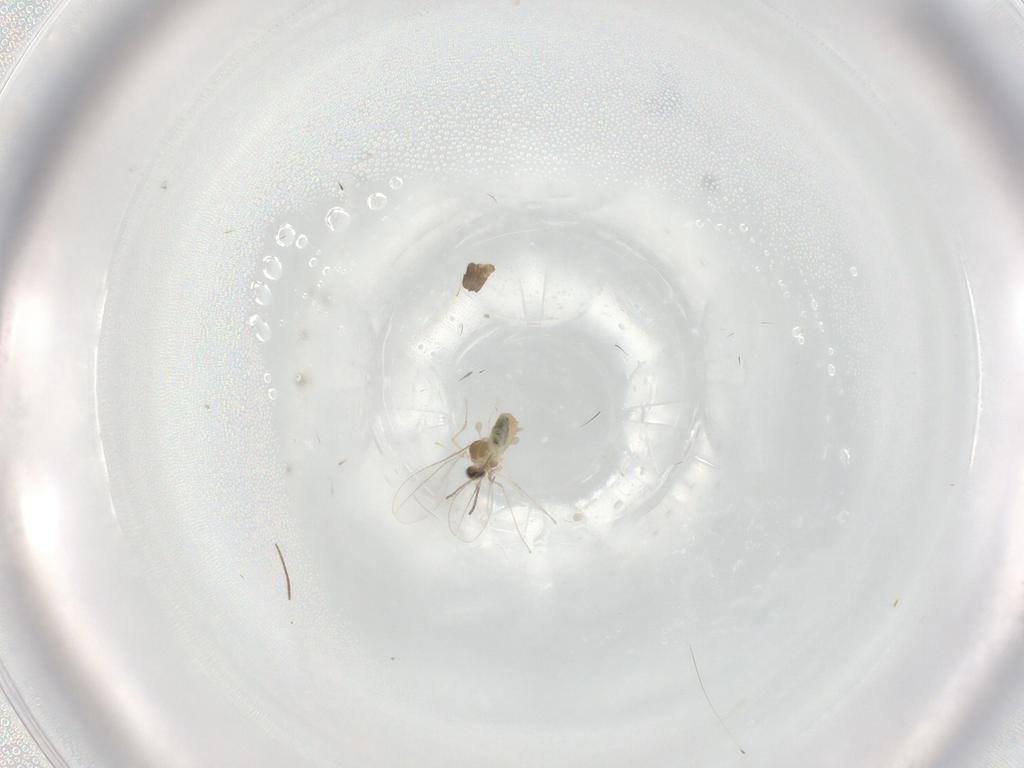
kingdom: Animalia
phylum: Arthropoda
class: Insecta
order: Diptera
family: Cecidomyiidae
